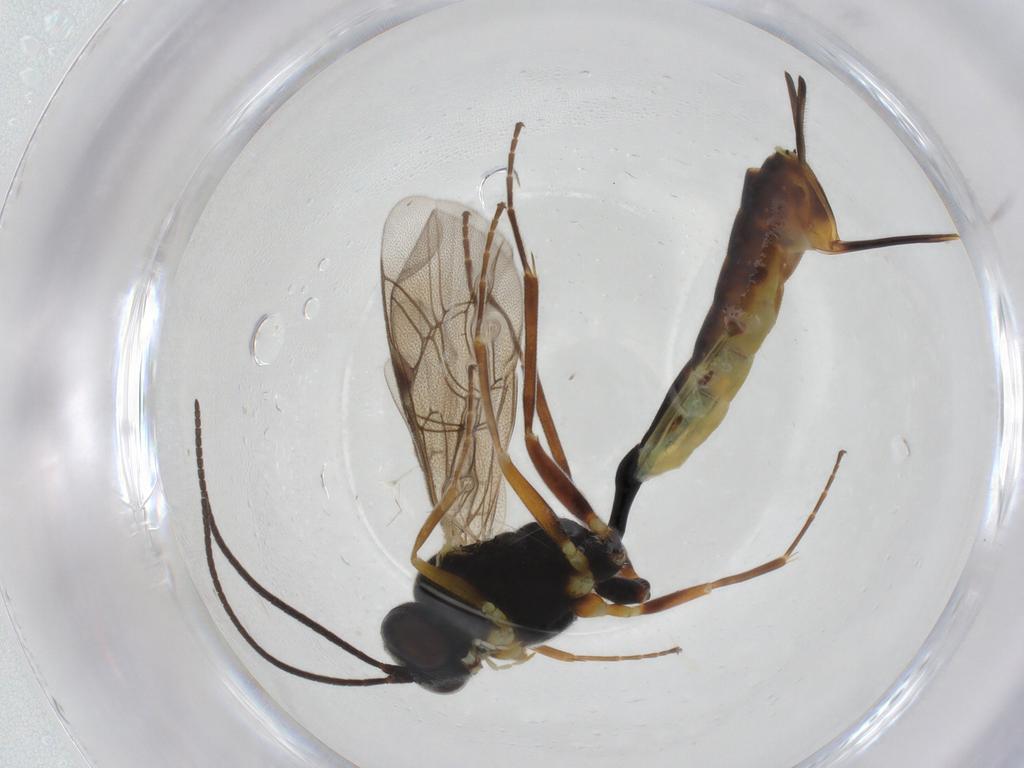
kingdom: Animalia
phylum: Arthropoda
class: Insecta
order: Hymenoptera
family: Ichneumonidae
